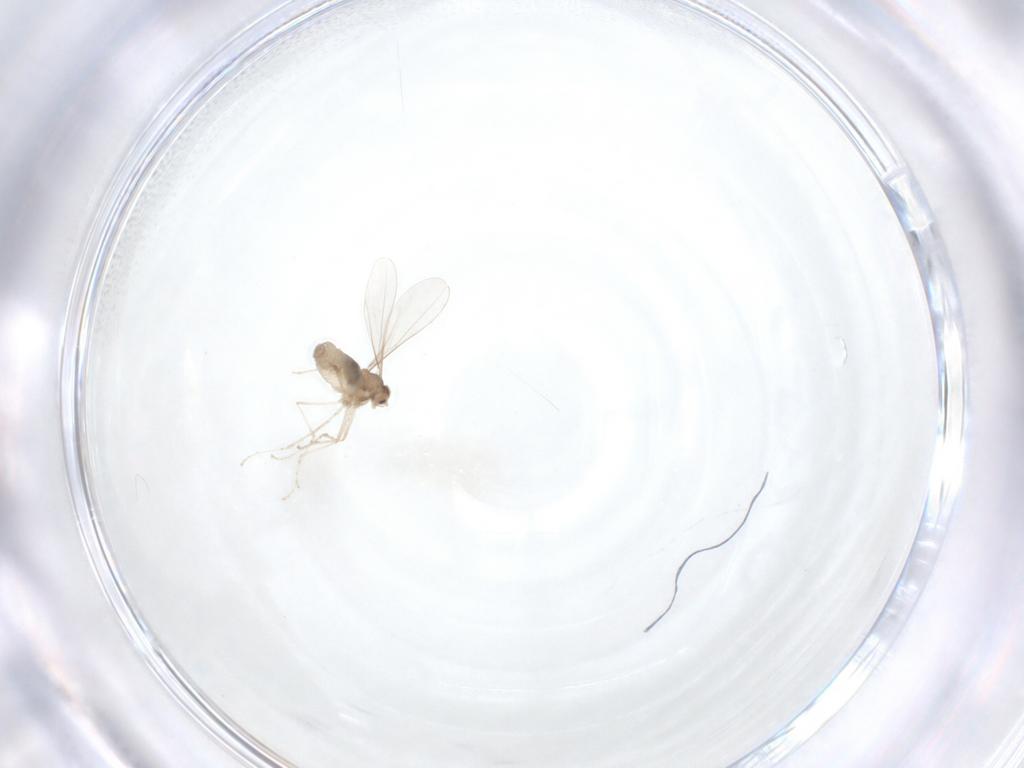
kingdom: Animalia
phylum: Arthropoda
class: Insecta
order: Diptera
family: Cecidomyiidae
